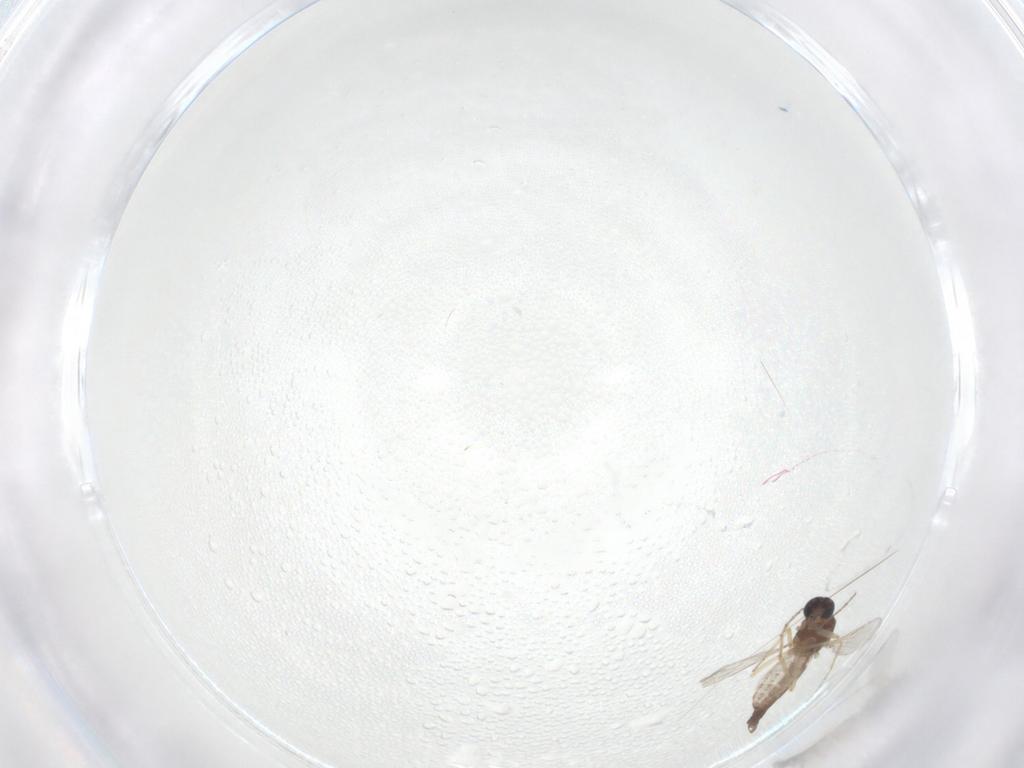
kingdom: Animalia
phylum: Arthropoda
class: Insecta
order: Diptera
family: Ceratopogonidae
